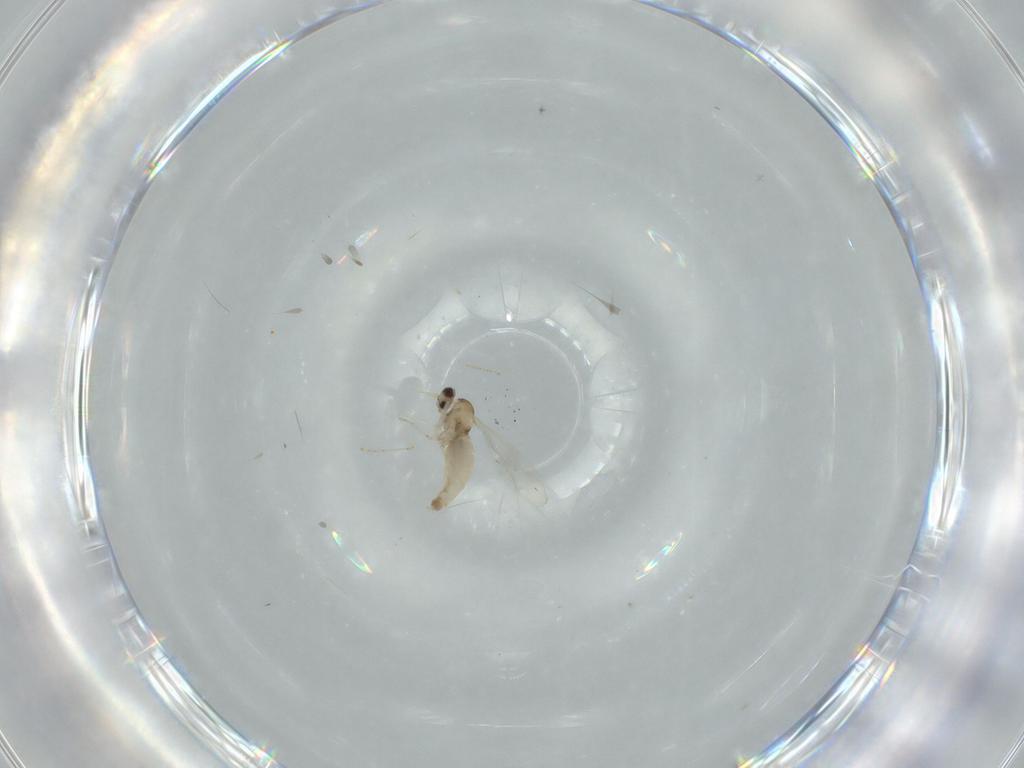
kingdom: Animalia
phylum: Arthropoda
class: Insecta
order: Diptera
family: Cecidomyiidae
